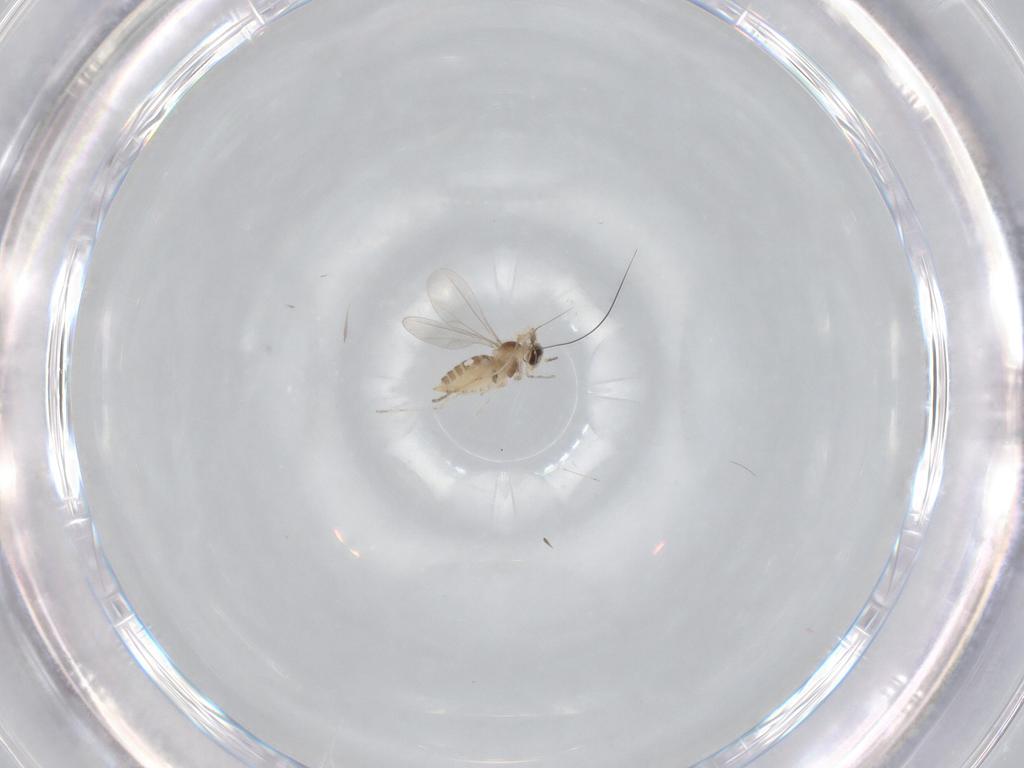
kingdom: Animalia
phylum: Arthropoda
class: Insecta
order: Diptera
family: Cecidomyiidae
